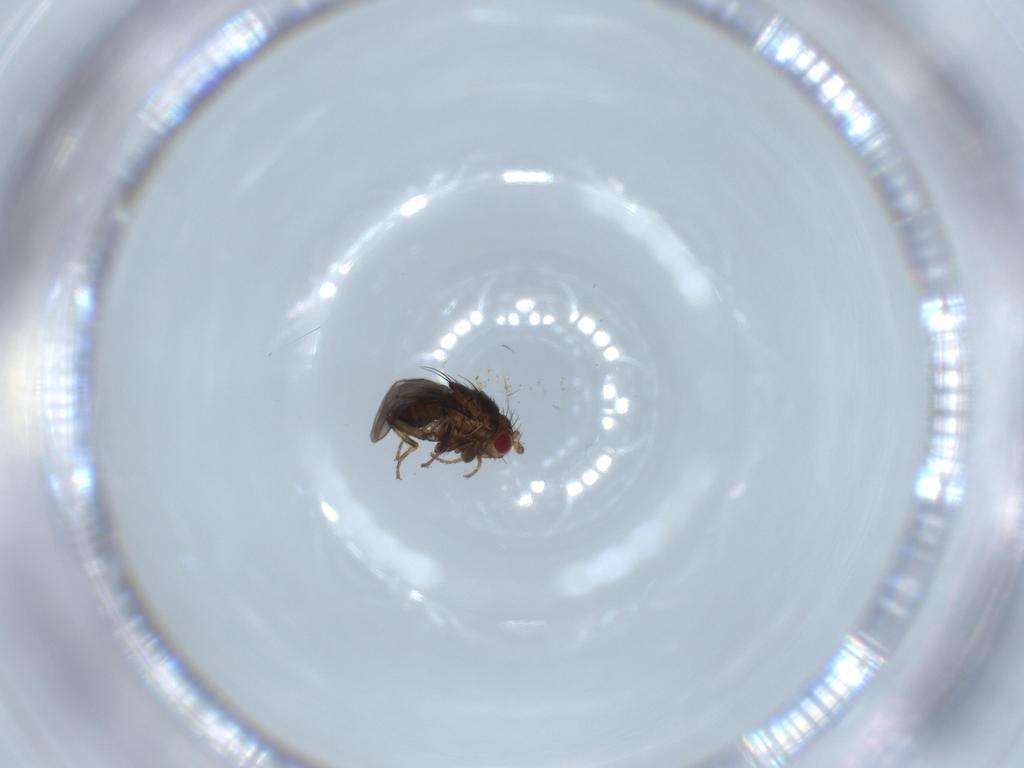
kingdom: Animalia
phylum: Arthropoda
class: Insecta
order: Diptera
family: Cecidomyiidae
